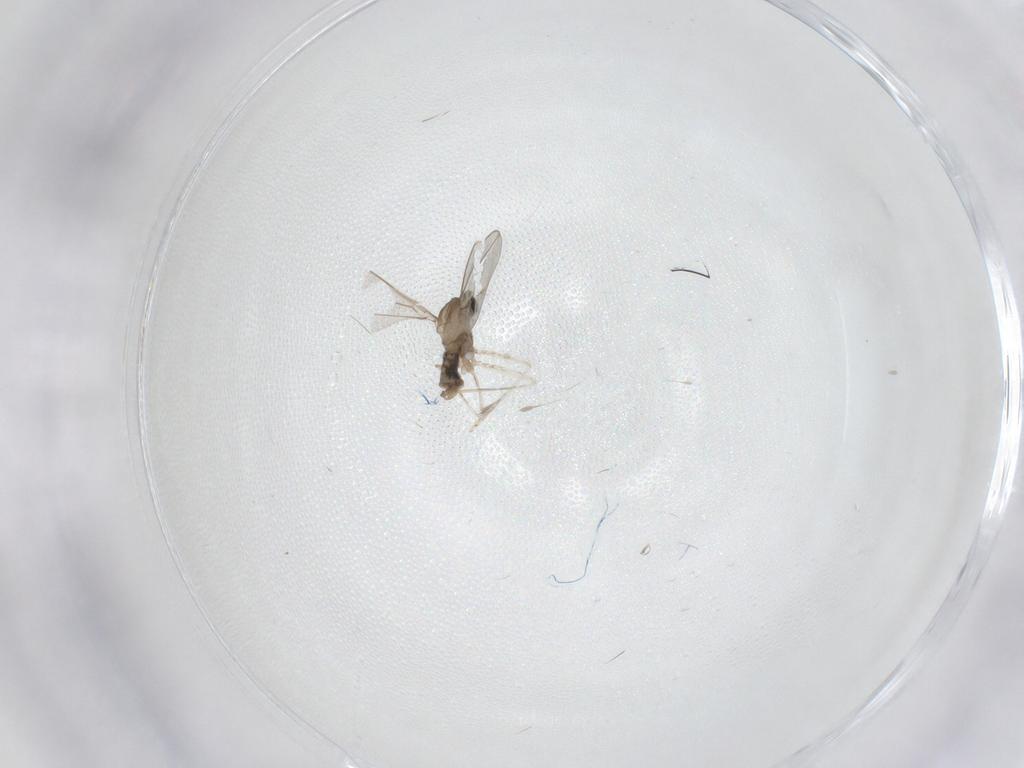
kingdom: Animalia
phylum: Arthropoda
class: Insecta
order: Diptera
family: Cecidomyiidae
